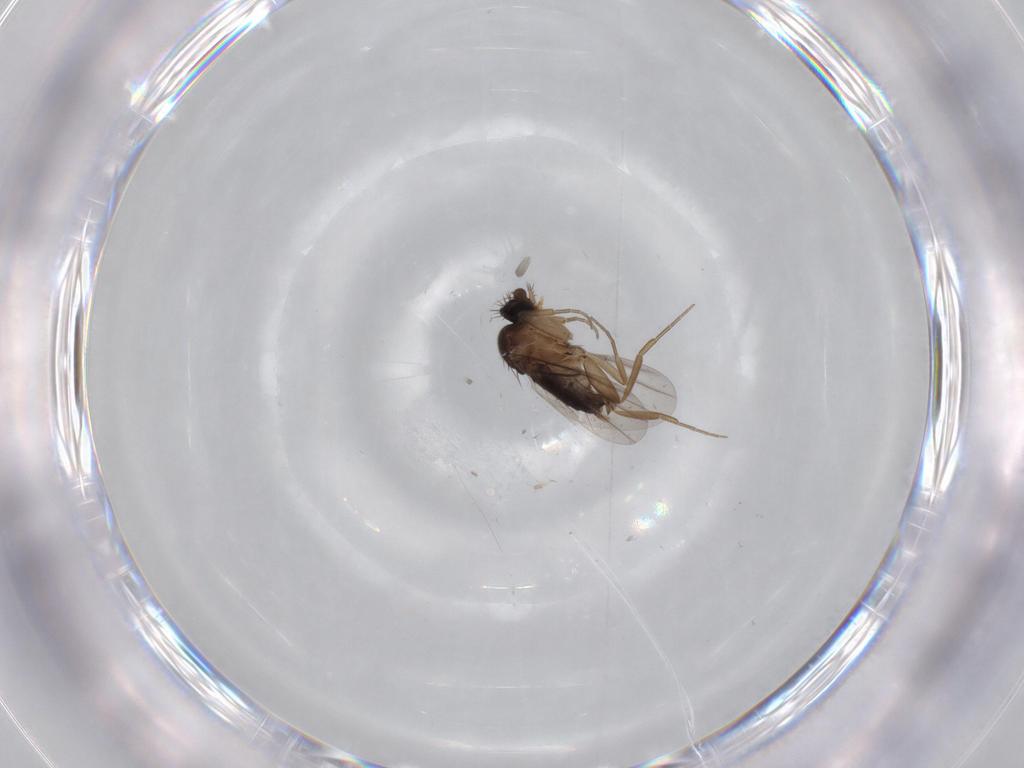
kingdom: Animalia
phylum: Arthropoda
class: Insecta
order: Diptera
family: Phoridae
